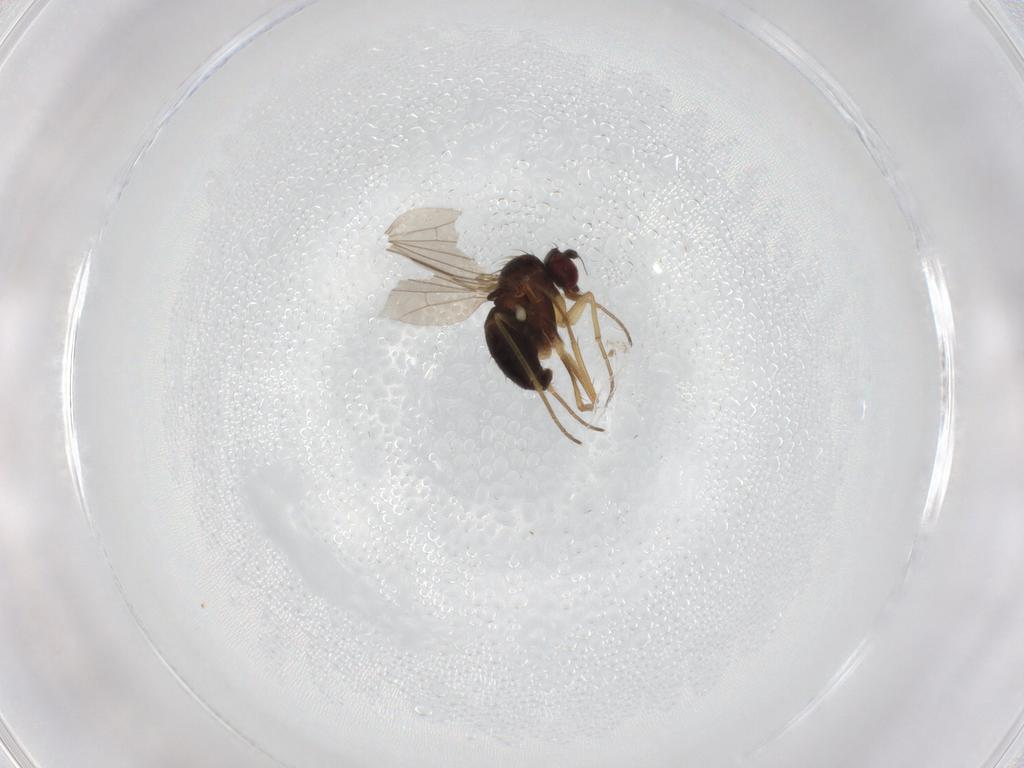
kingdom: Animalia
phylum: Arthropoda
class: Insecta
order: Diptera
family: Dolichopodidae
